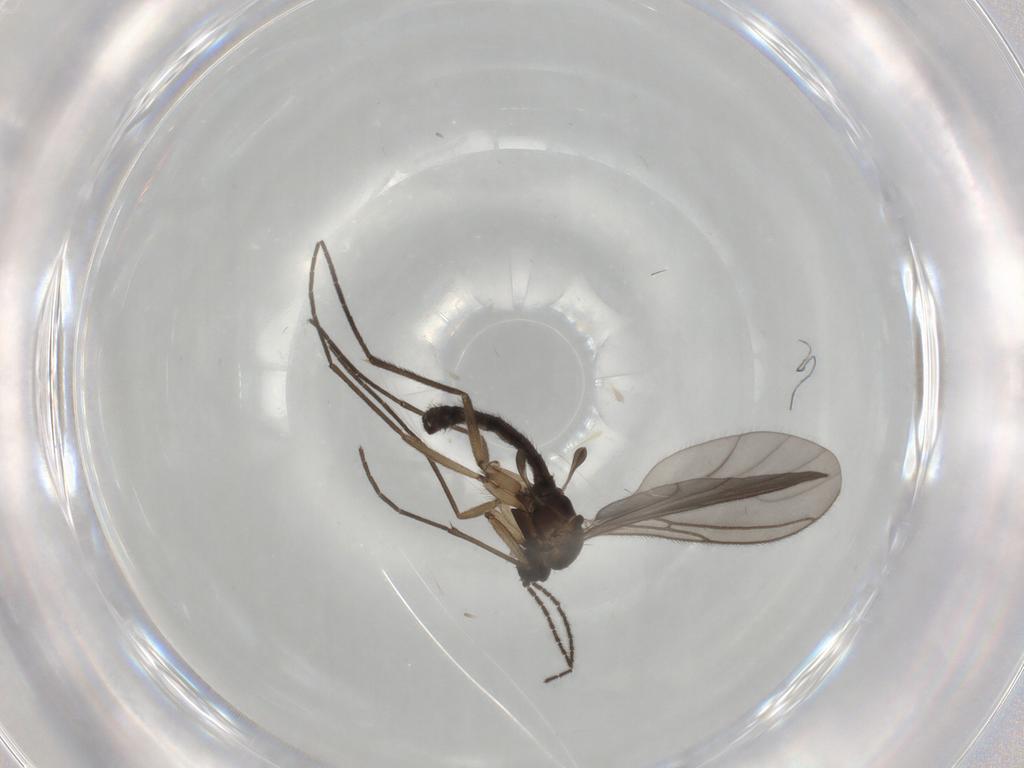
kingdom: Animalia
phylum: Arthropoda
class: Insecta
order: Diptera
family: Sciaridae
